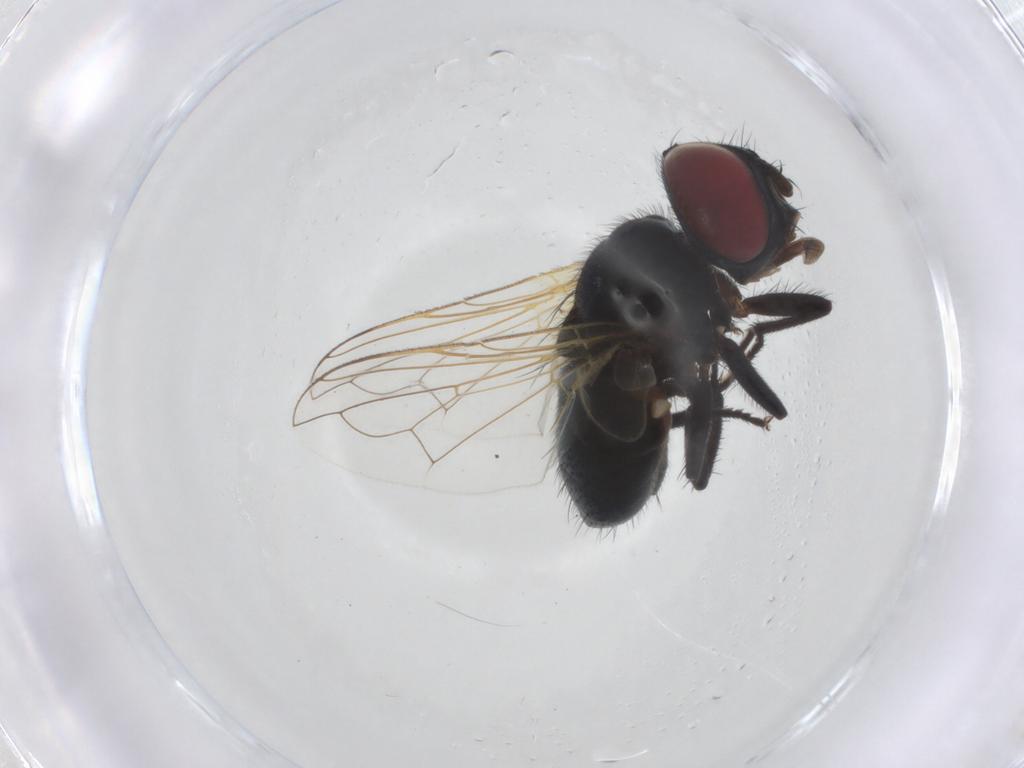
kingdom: Animalia
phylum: Arthropoda
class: Insecta
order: Diptera
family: Tachinidae
